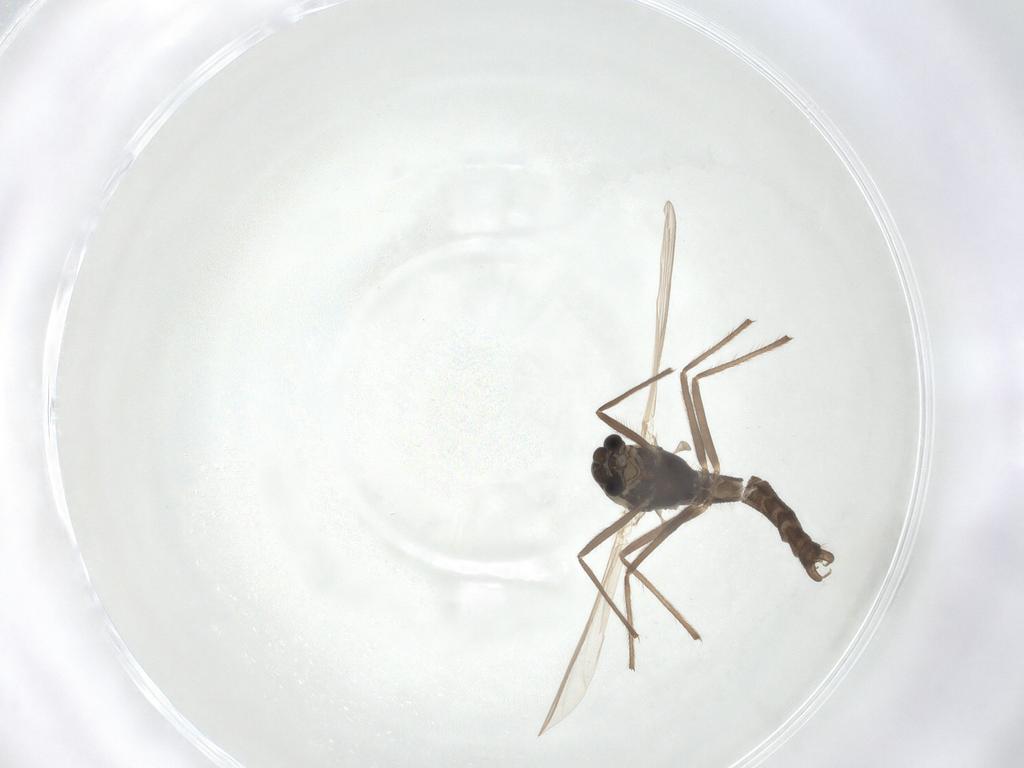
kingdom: Animalia
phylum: Arthropoda
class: Insecta
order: Diptera
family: Chironomidae
